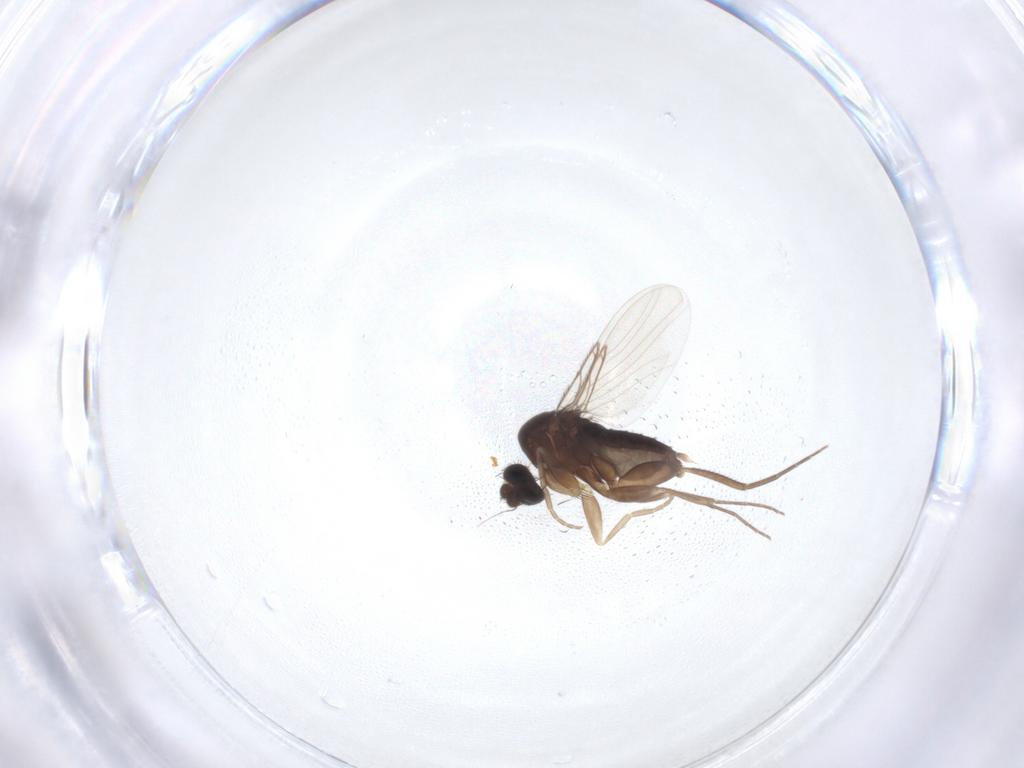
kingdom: Animalia
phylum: Arthropoda
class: Insecta
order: Diptera
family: Phoridae
